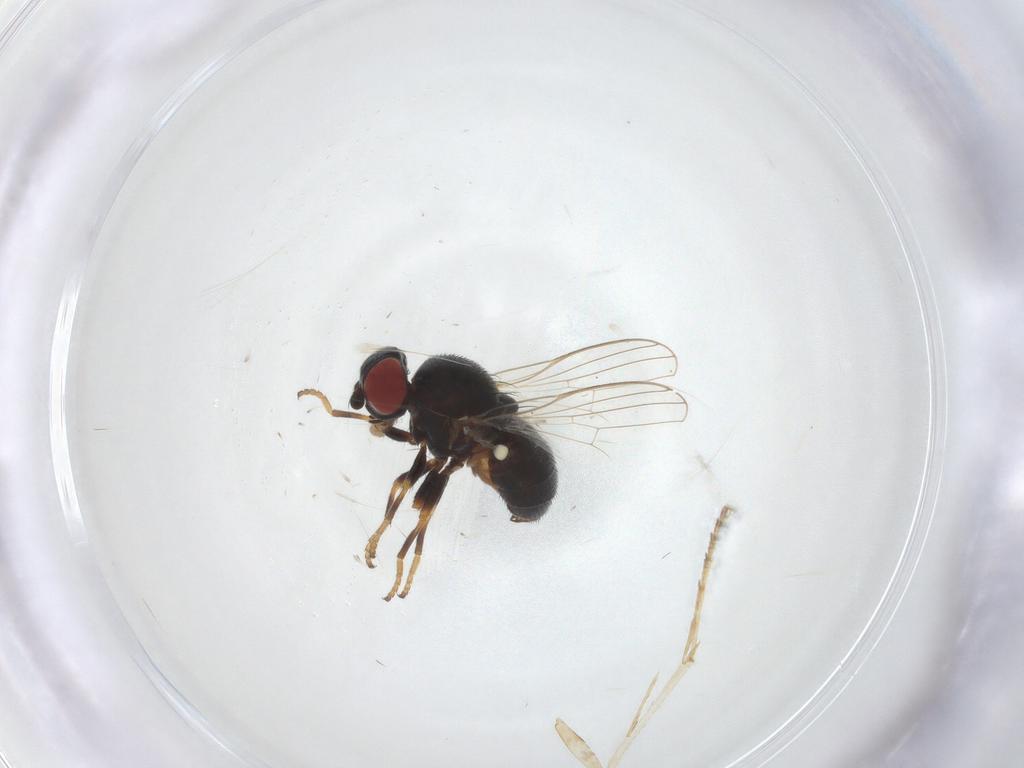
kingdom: Animalia
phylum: Arthropoda
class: Insecta
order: Diptera
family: Chamaemyiidae
